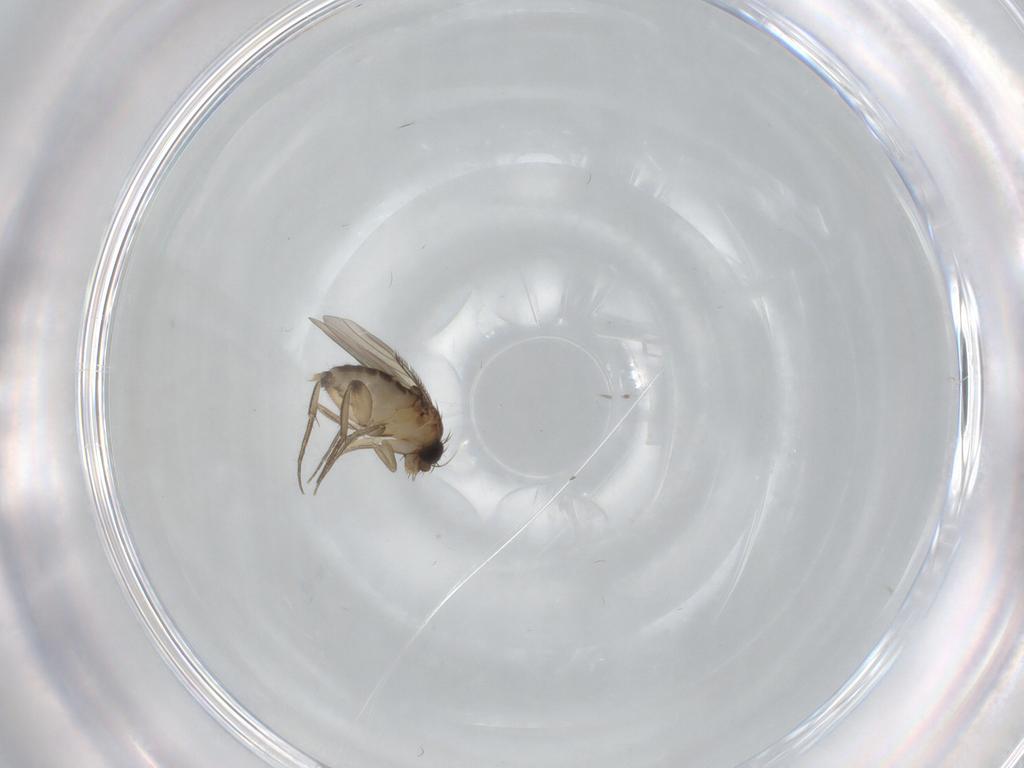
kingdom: Animalia
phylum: Arthropoda
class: Insecta
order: Diptera
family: Phoridae
